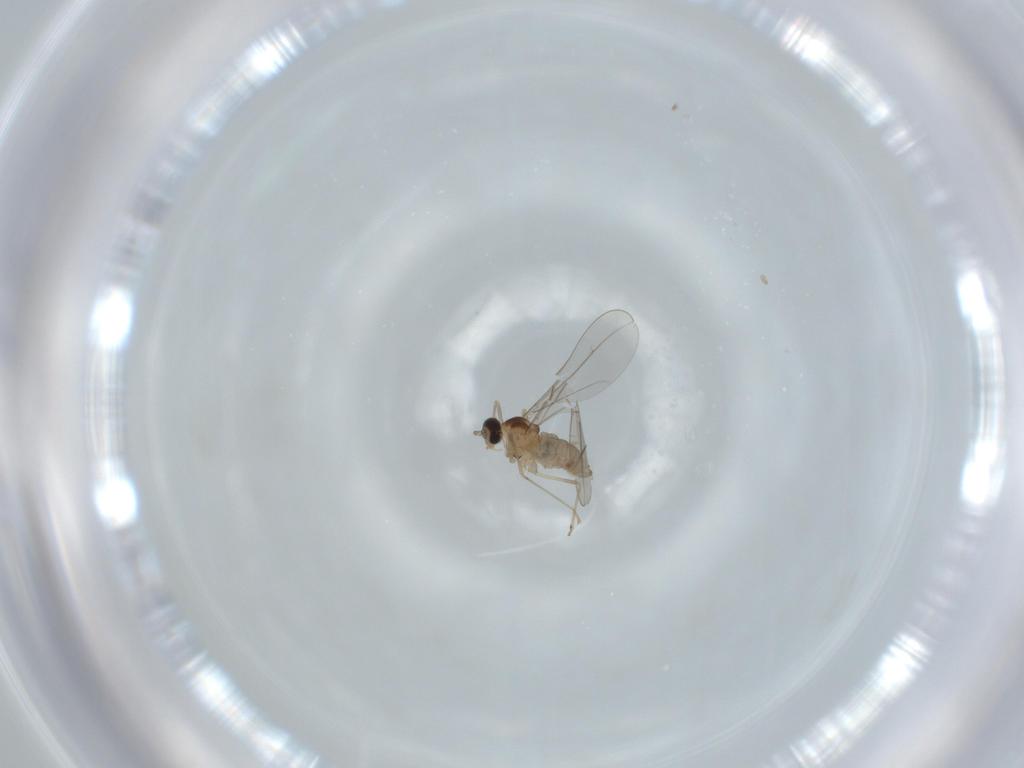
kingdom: Animalia
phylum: Arthropoda
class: Insecta
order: Diptera
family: Cecidomyiidae
